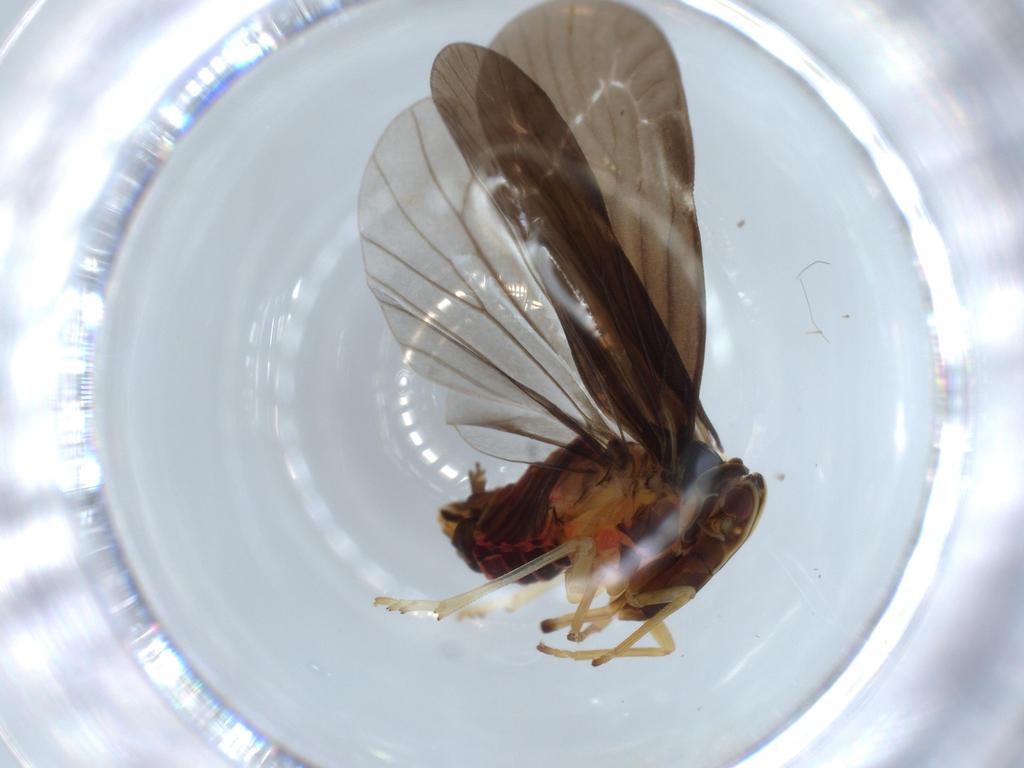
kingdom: Animalia
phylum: Arthropoda
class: Insecta
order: Hemiptera
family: Derbidae
